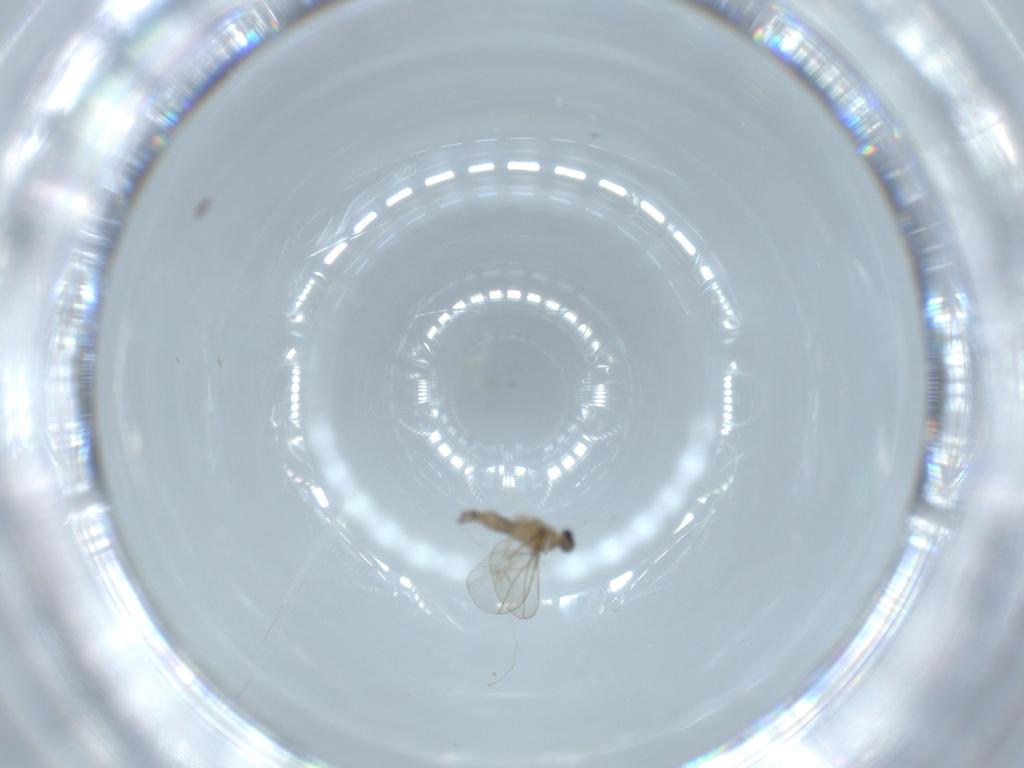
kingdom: Animalia
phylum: Arthropoda
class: Insecta
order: Diptera
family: Cecidomyiidae
